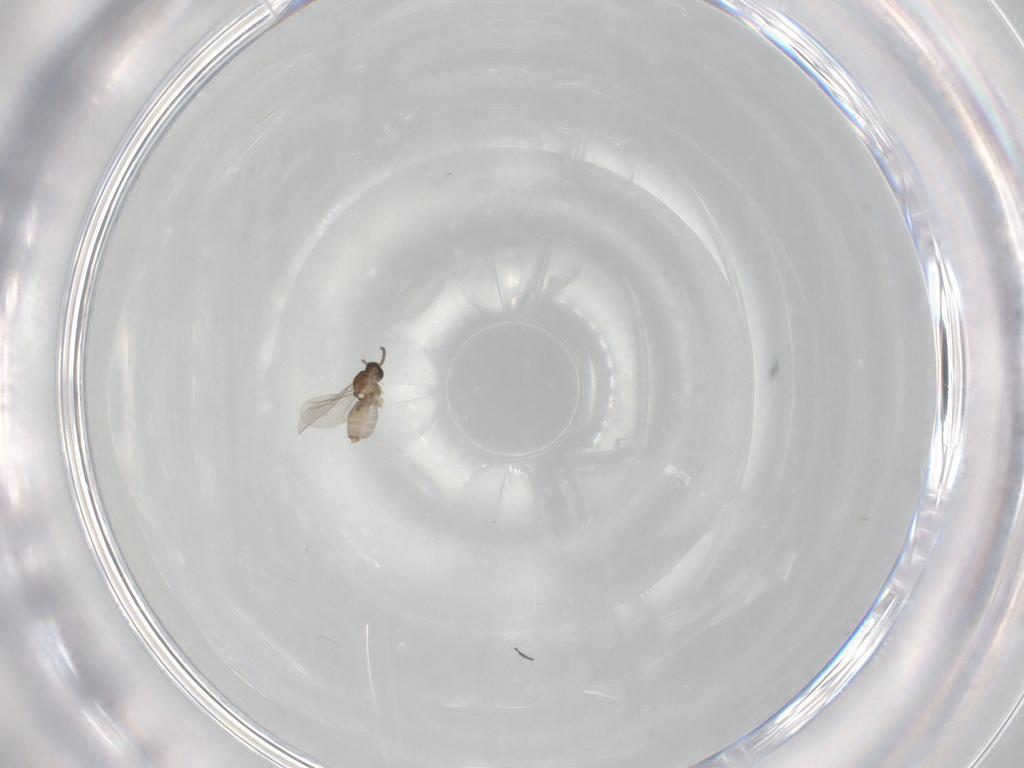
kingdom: Animalia
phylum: Arthropoda
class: Insecta
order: Diptera
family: Cecidomyiidae
